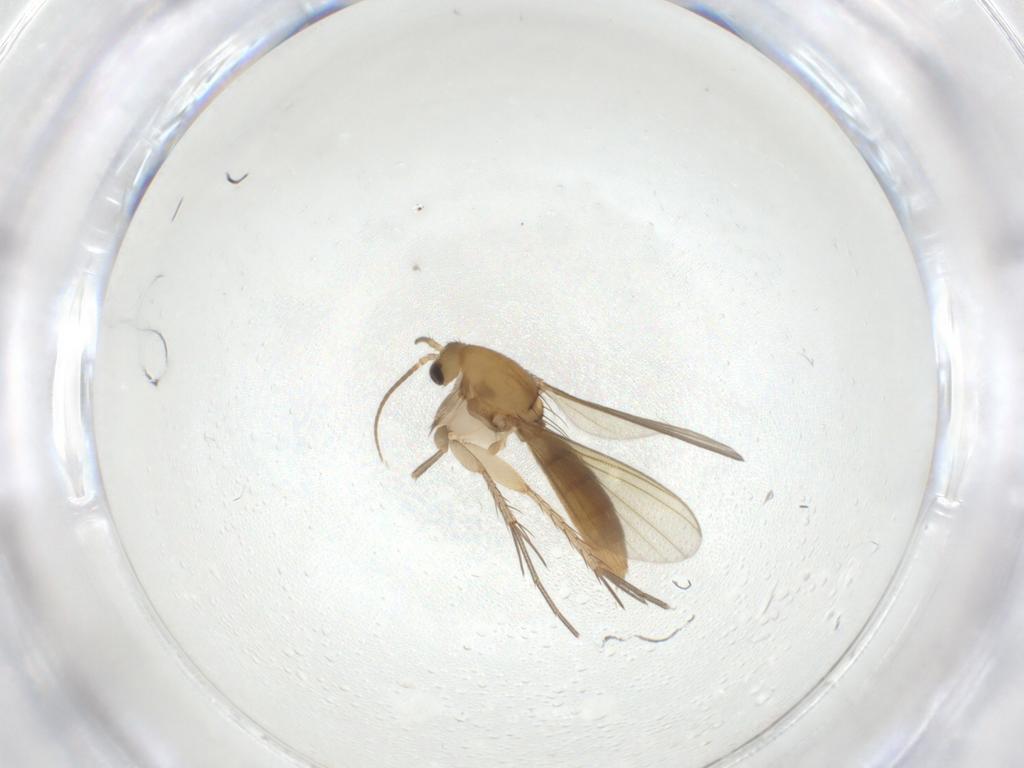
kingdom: Animalia
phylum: Arthropoda
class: Insecta
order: Diptera
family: Mycetophilidae
